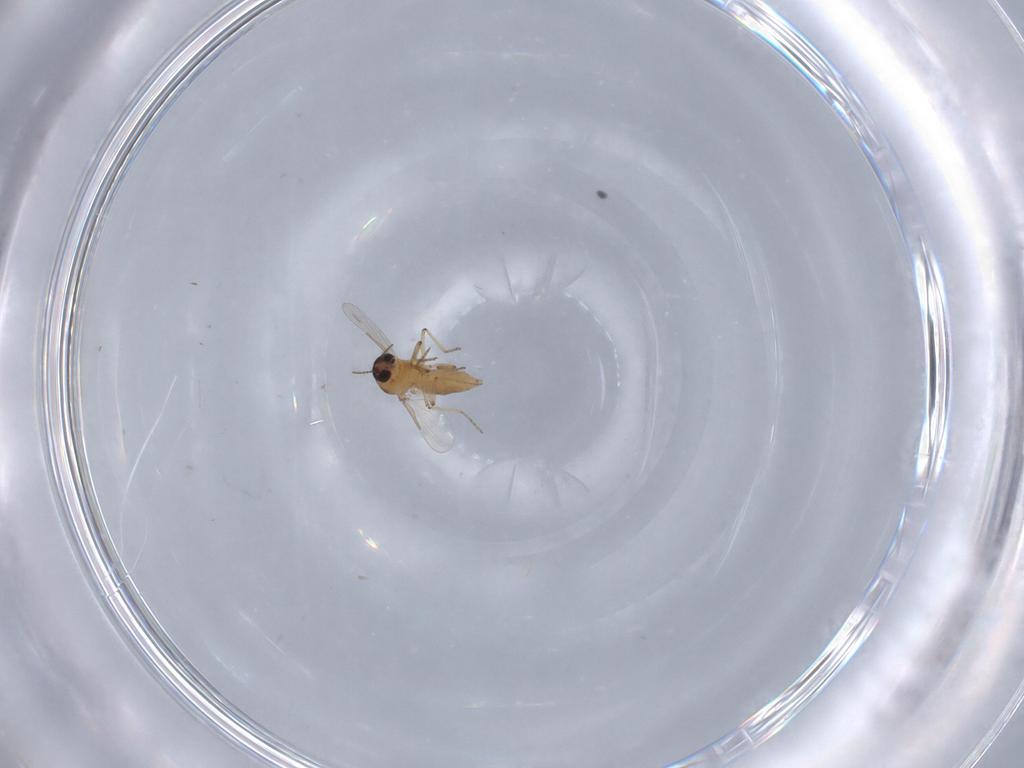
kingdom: Animalia
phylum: Arthropoda
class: Insecta
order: Diptera
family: Ceratopogonidae
